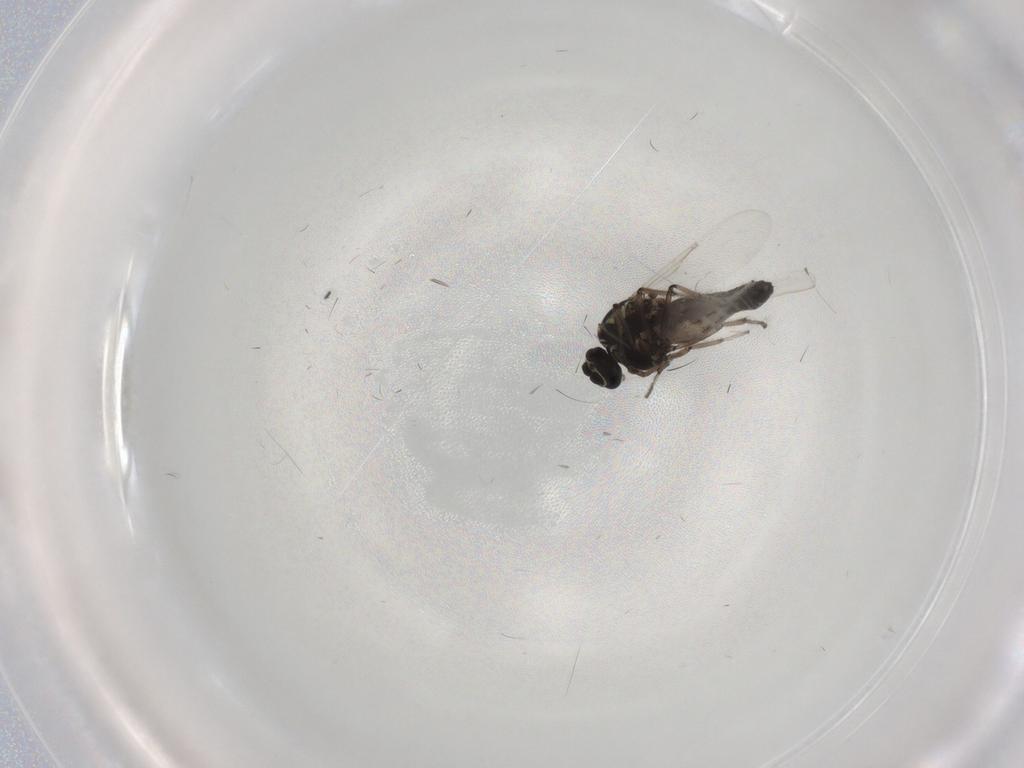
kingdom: Animalia
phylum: Arthropoda
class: Insecta
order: Diptera
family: Ceratopogonidae
